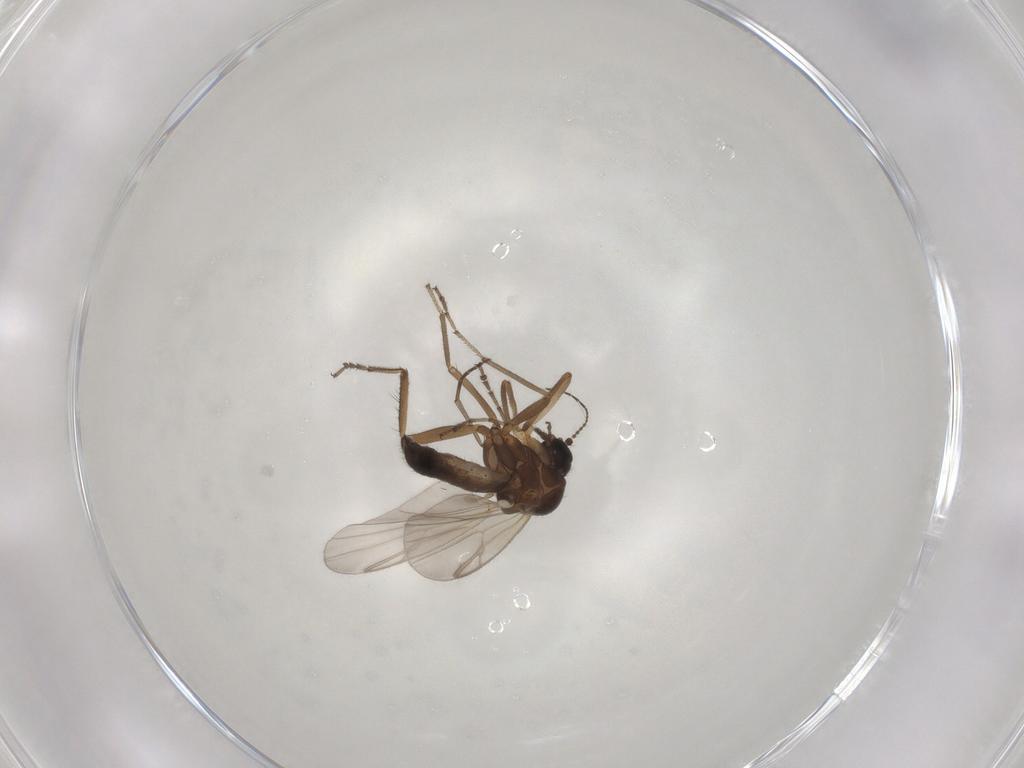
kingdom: Animalia
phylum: Arthropoda
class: Insecta
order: Diptera
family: Ceratopogonidae
